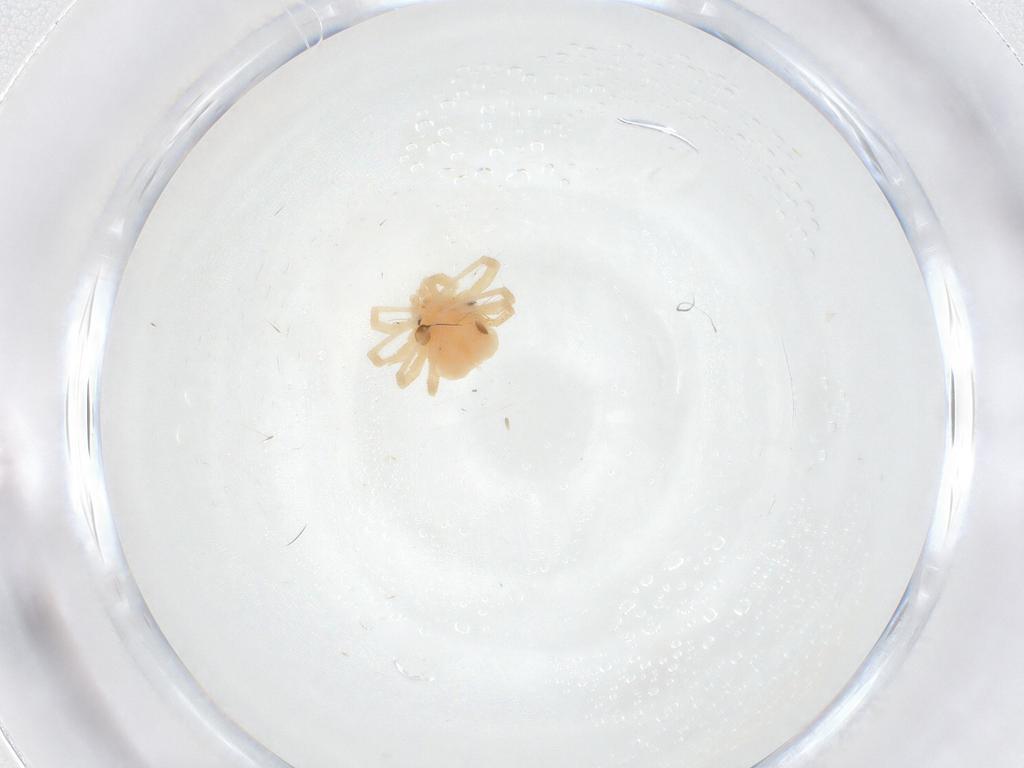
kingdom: Animalia
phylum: Arthropoda
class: Arachnida
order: Trombidiformes
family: Anystidae
